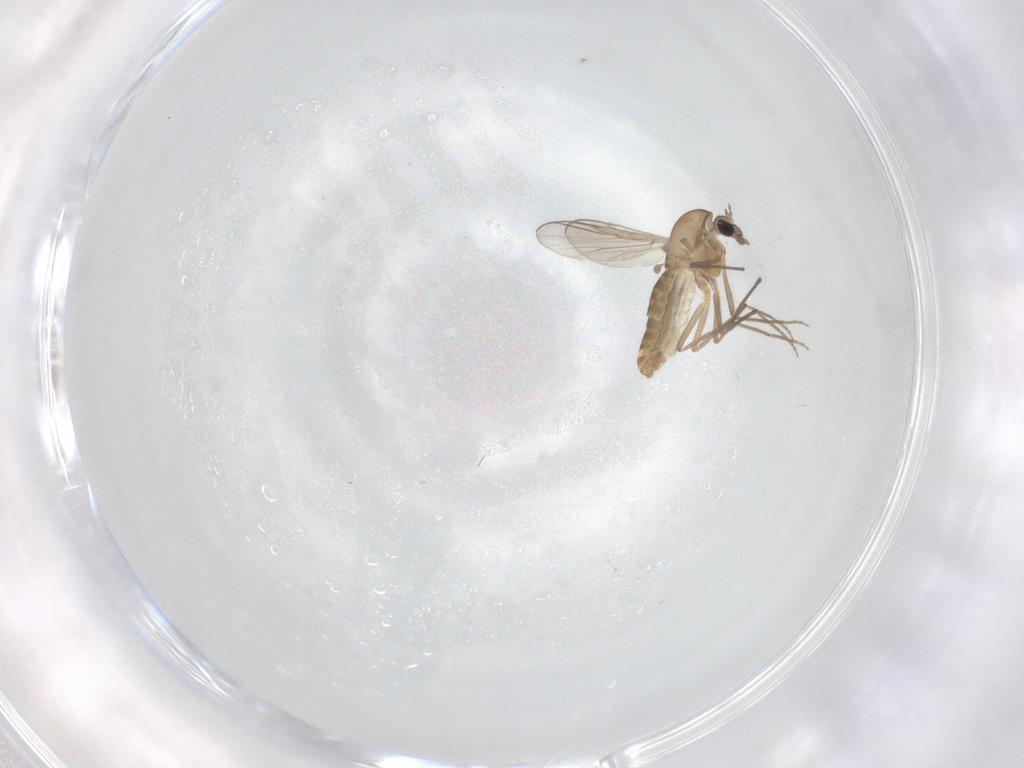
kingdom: Animalia
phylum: Arthropoda
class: Insecta
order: Diptera
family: Chironomidae
